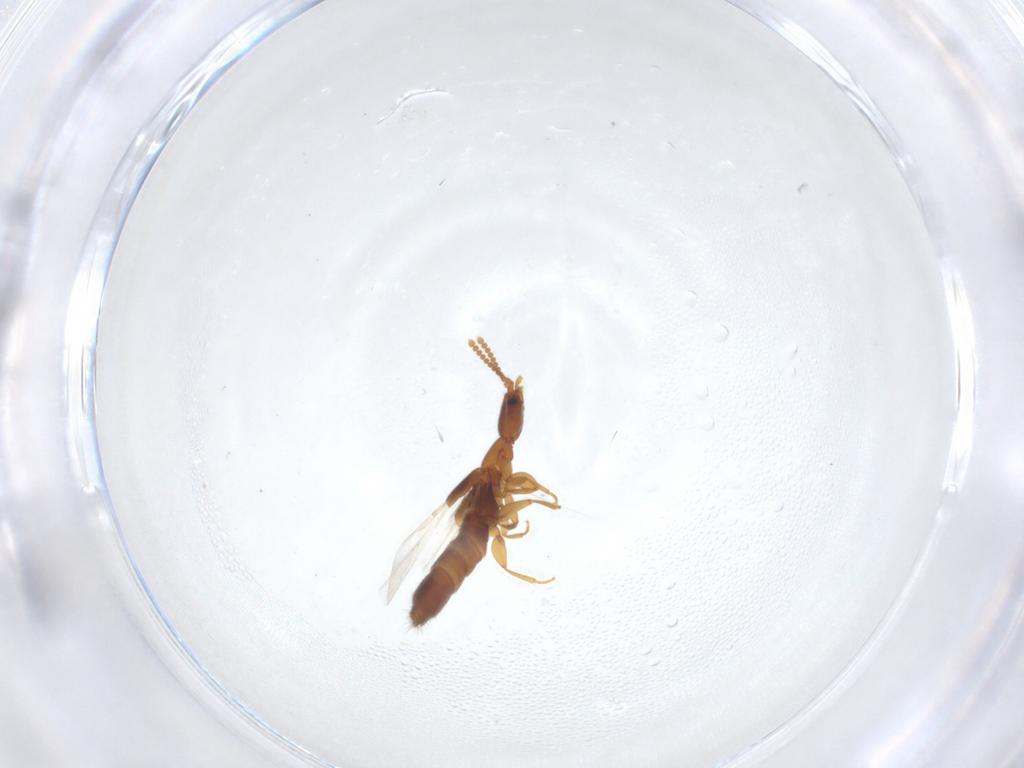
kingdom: Animalia
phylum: Arthropoda
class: Insecta
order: Coleoptera
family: Staphylinidae
